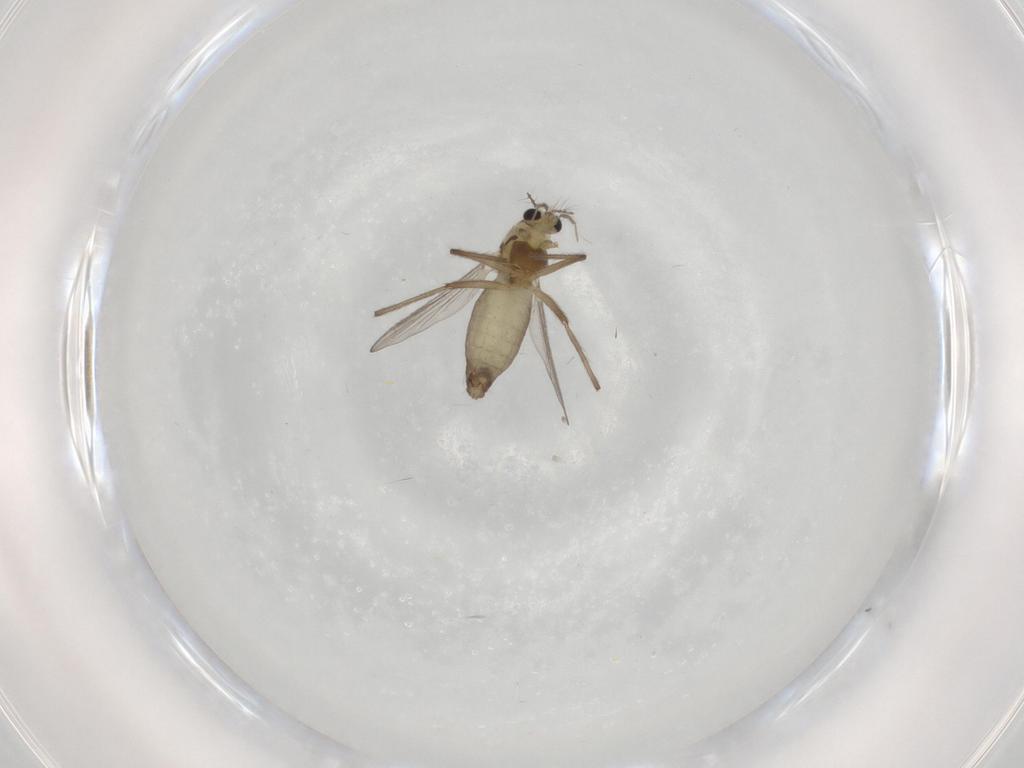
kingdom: Animalia
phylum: Arthropoda
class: Insecta
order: Diptera
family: Chironomidae
